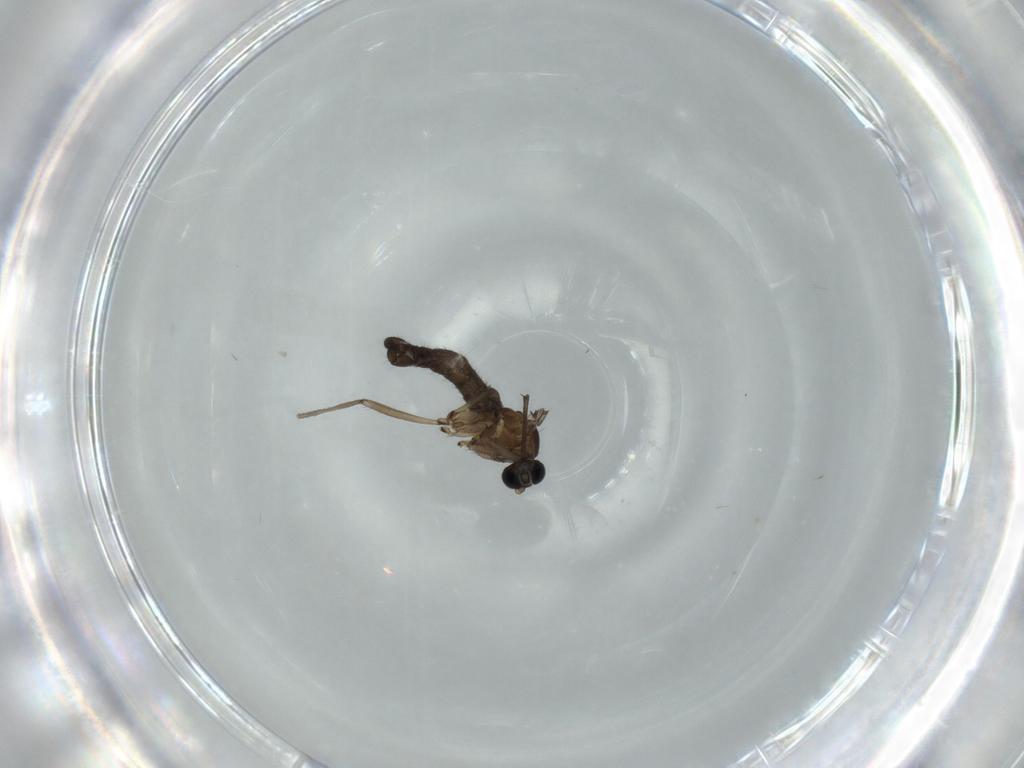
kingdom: Animalia
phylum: Arthropoda
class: Insecta
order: Diptera
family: Sciaridae
